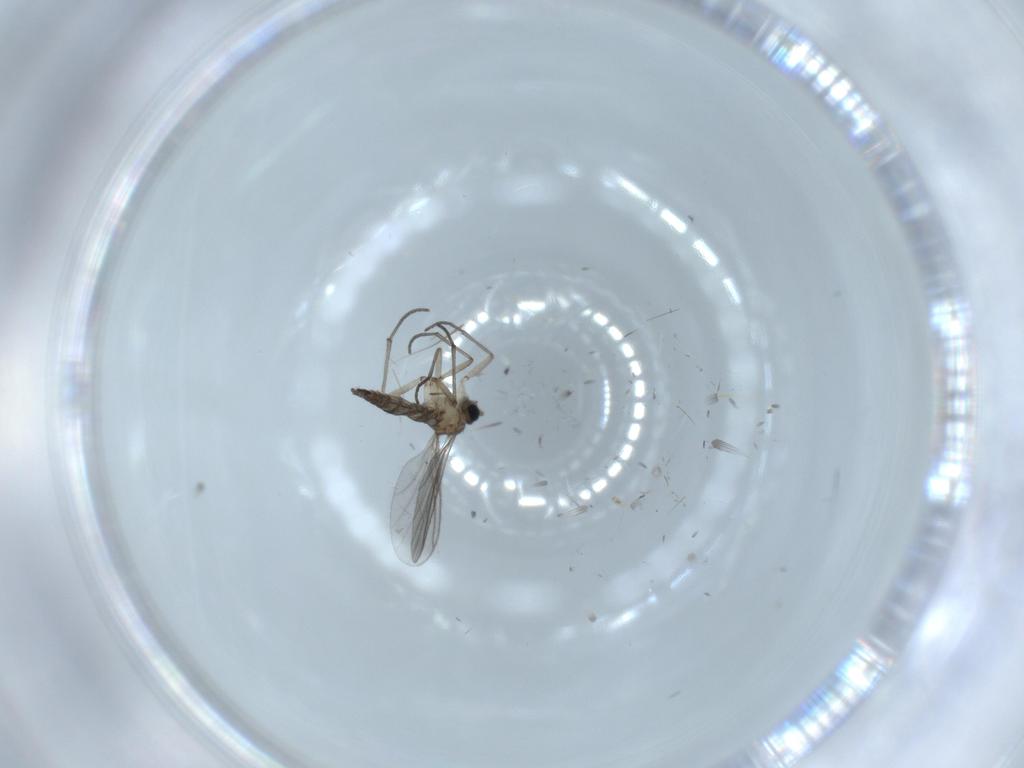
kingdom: Animalia
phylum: Arthropoda
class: Insecta
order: Diptera
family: Sciaridae
